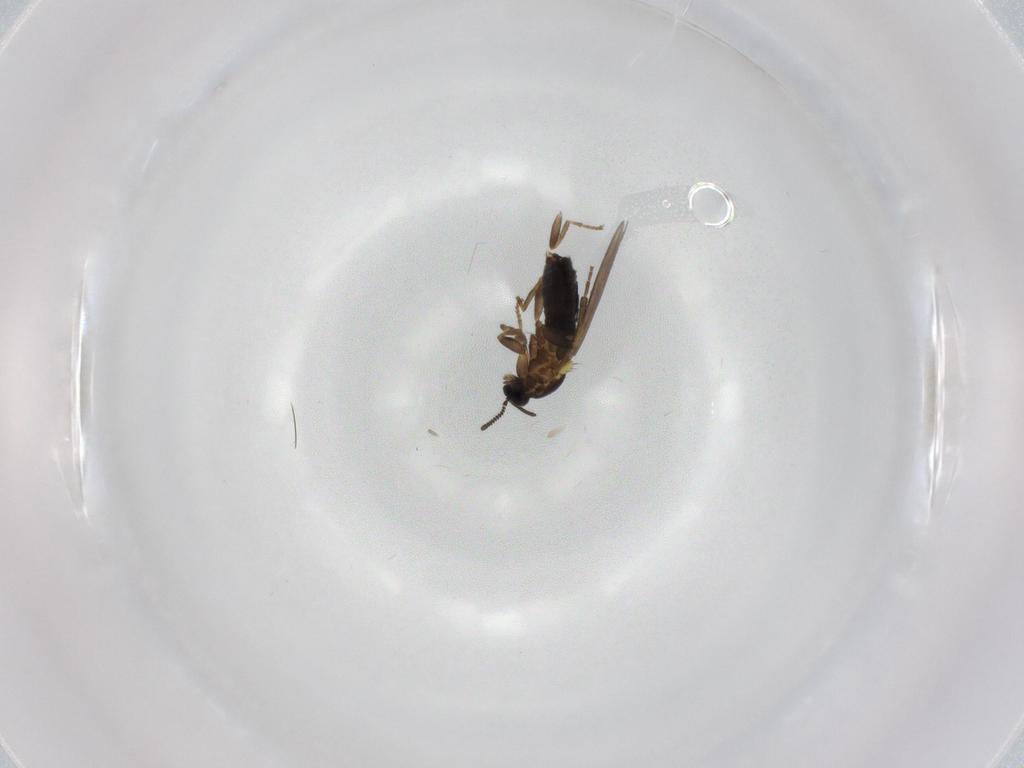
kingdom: Animalia
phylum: Arthropoda
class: Insecta
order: Diptera
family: Scatopsidae
